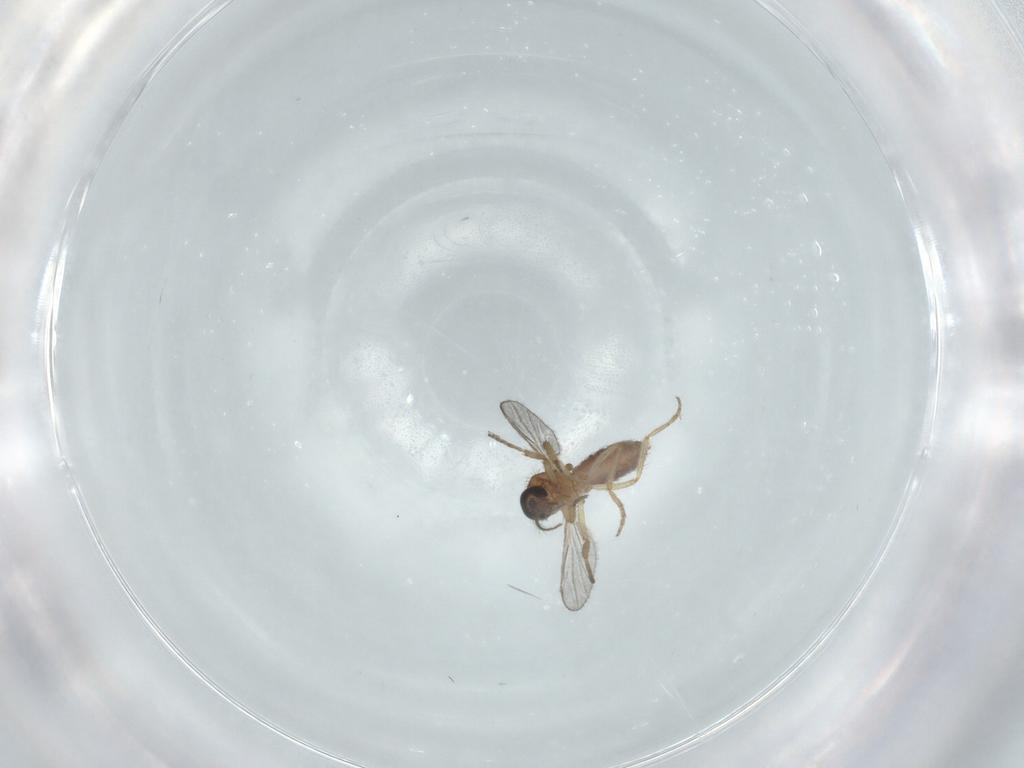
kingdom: Animalia
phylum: Arthropoda
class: Insecta
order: Diptera
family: Ceratopogonidae
